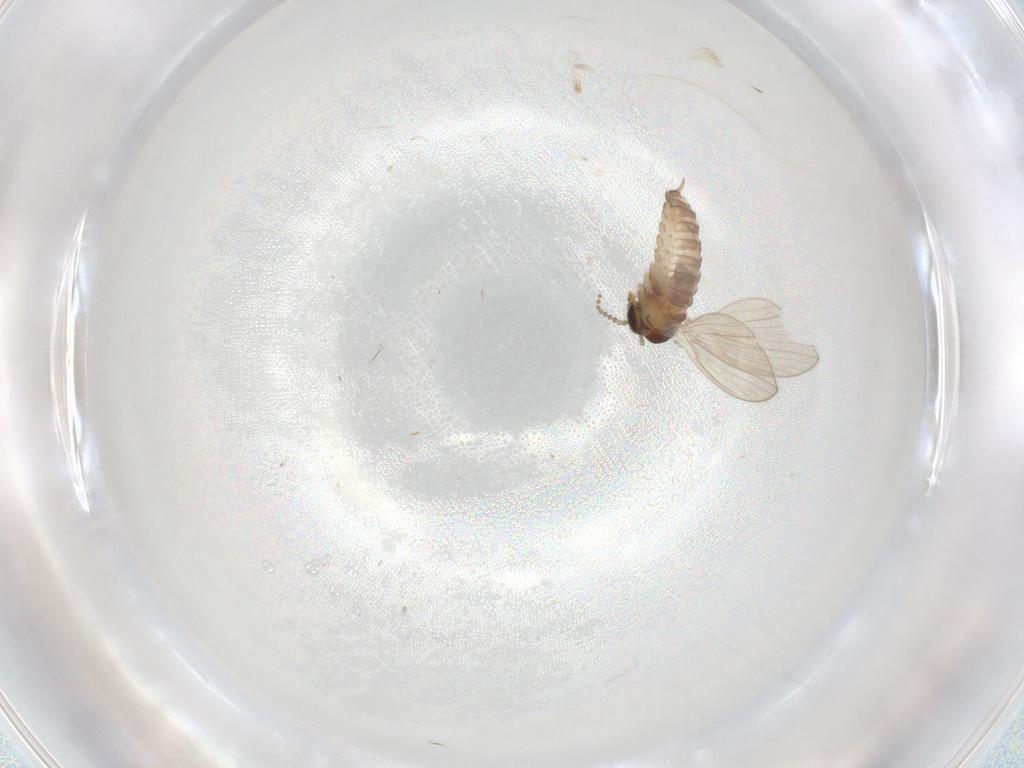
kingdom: Animalia
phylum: Arthropoda
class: Insecta
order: Diptera
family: Psychodidae
